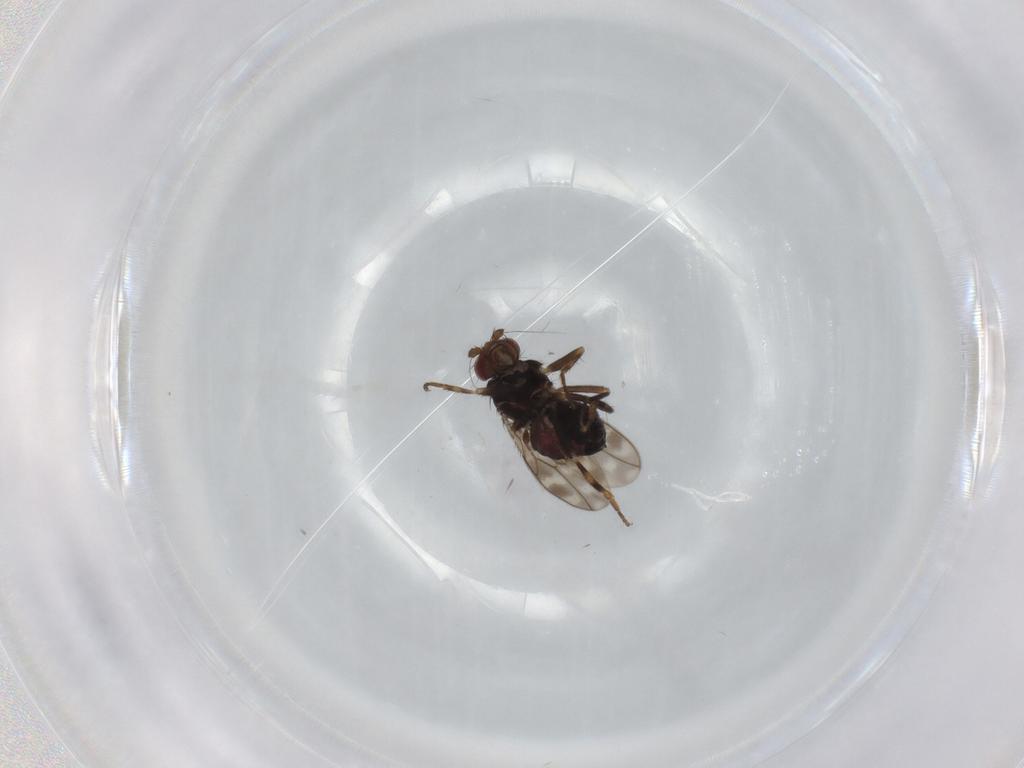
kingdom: Animalia
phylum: Arthropoda
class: Insecta
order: Diptera
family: Sphaeroceridae
